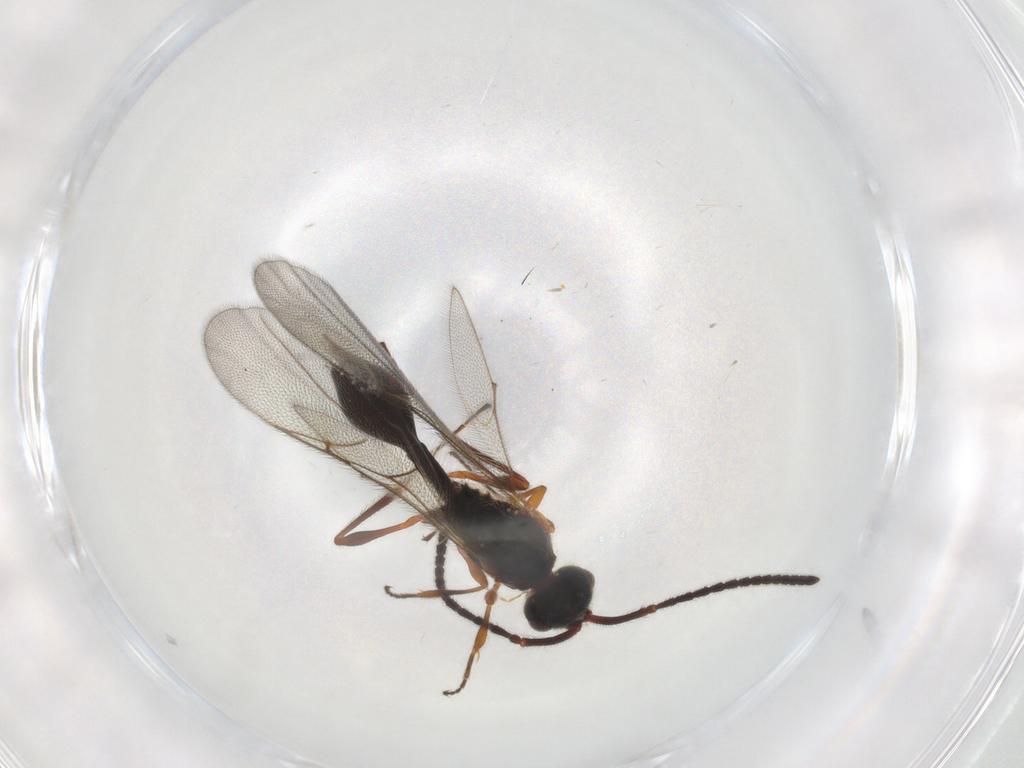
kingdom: Animalia
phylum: Arthropoda
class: Insecta
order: Hymenoptera
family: Diapriidae
